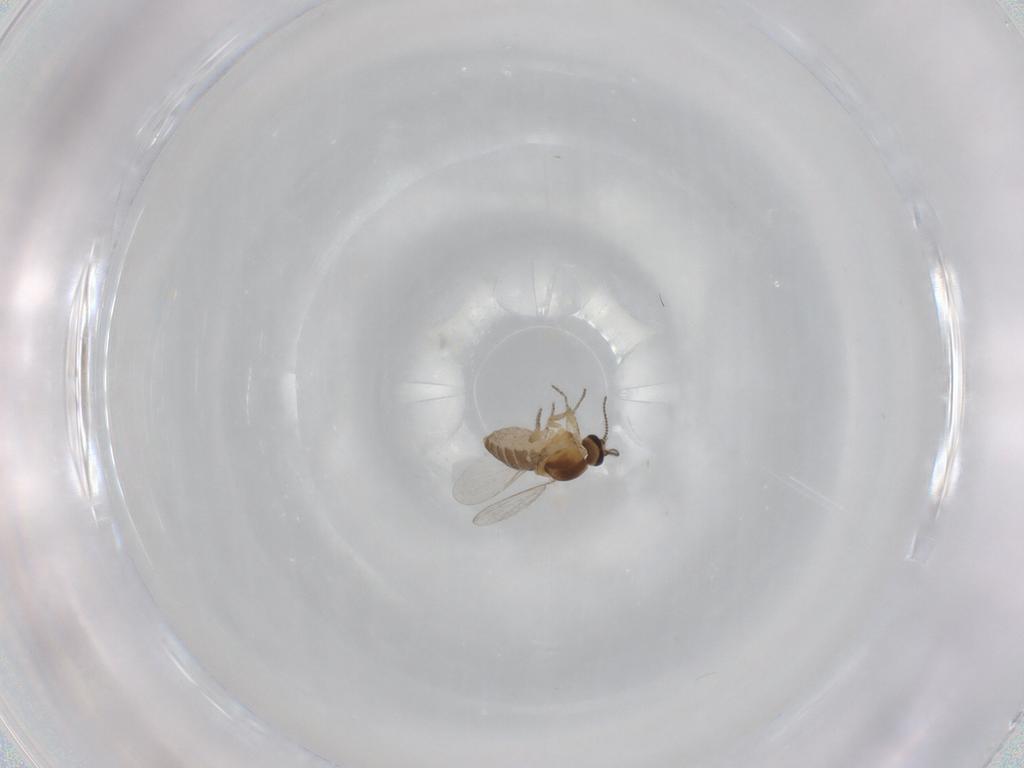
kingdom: Animalia
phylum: Arthropoda
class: Insecta
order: Diptera
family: Ceratopogonidae
